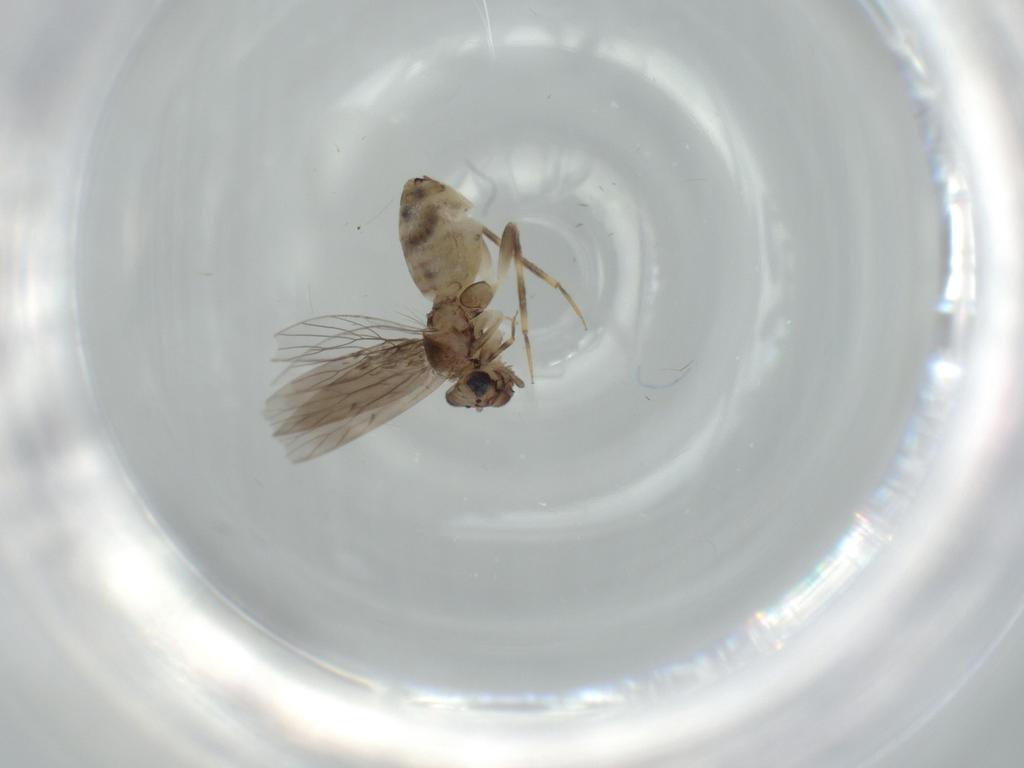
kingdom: Animalia
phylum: Arthropoda
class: Insecta
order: Psocodea
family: Lepidopsocidae
